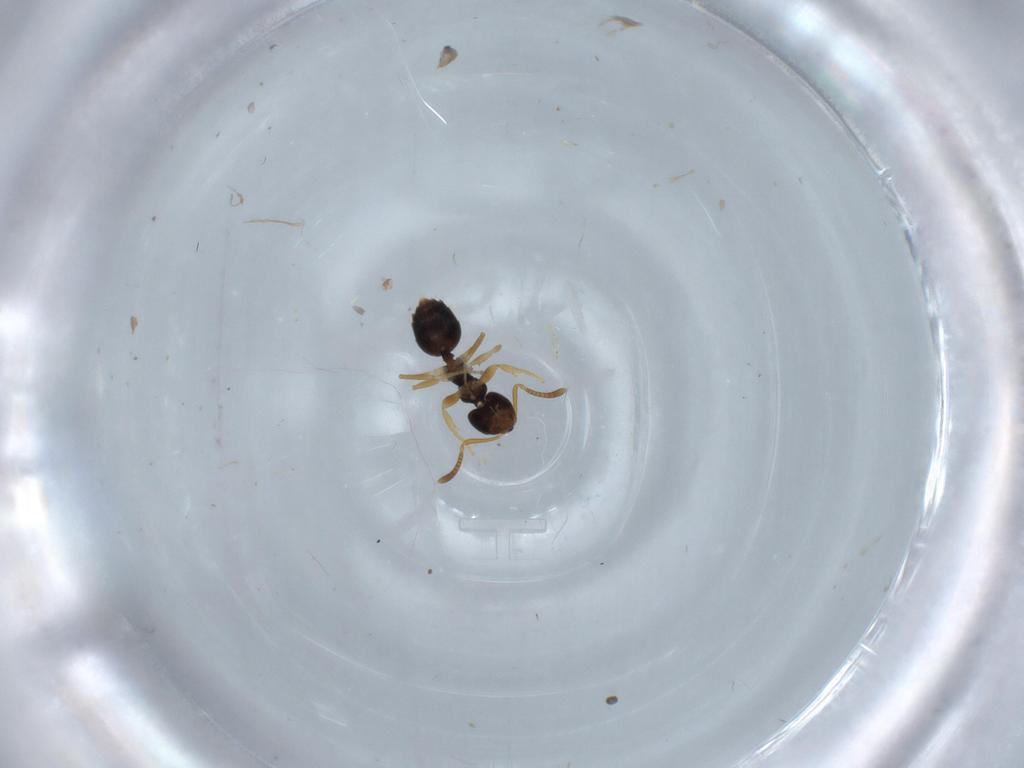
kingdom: Animalia
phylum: Arthropoda
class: Insecta
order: Hymenoptera
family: Formicidae
